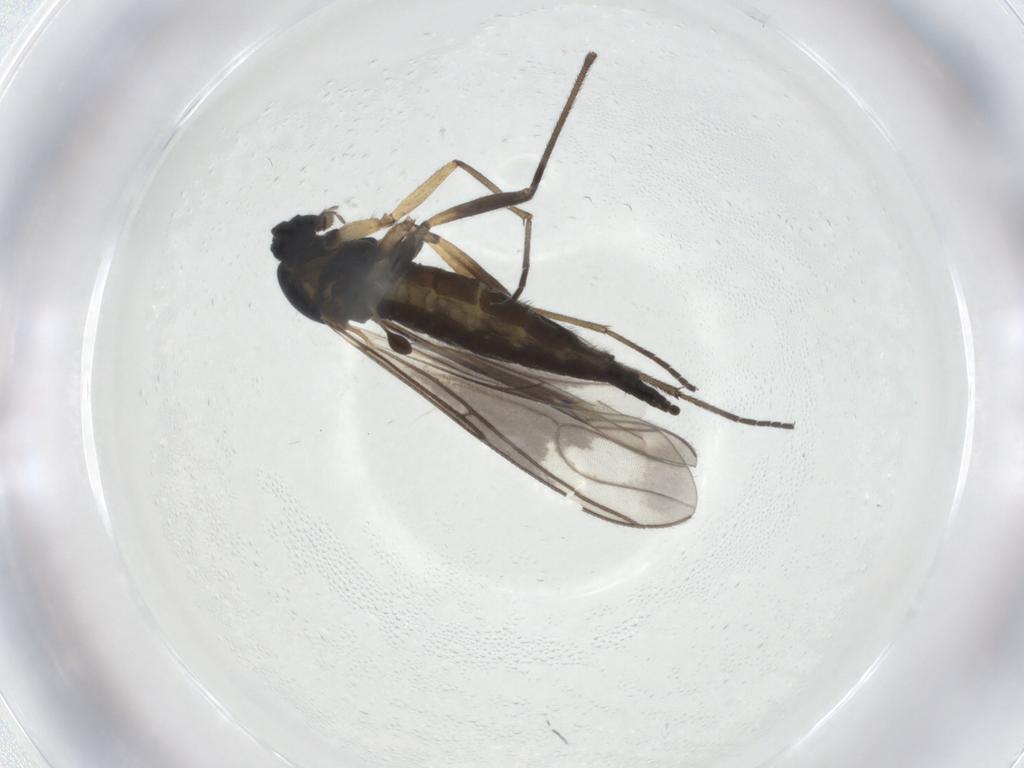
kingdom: Animalia
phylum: Arthropoda
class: Insecta
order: Diptera
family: Sciaridae
